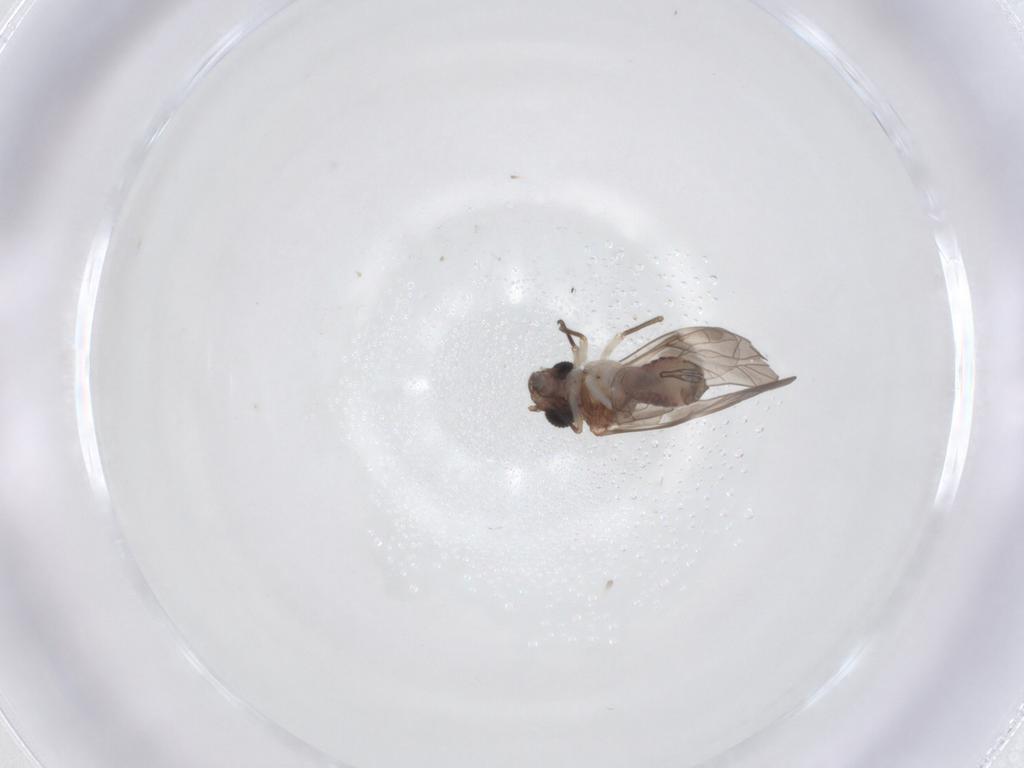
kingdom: Animalia
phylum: Arthropoda
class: Insecta
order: Psocodea
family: Peripsocidae
